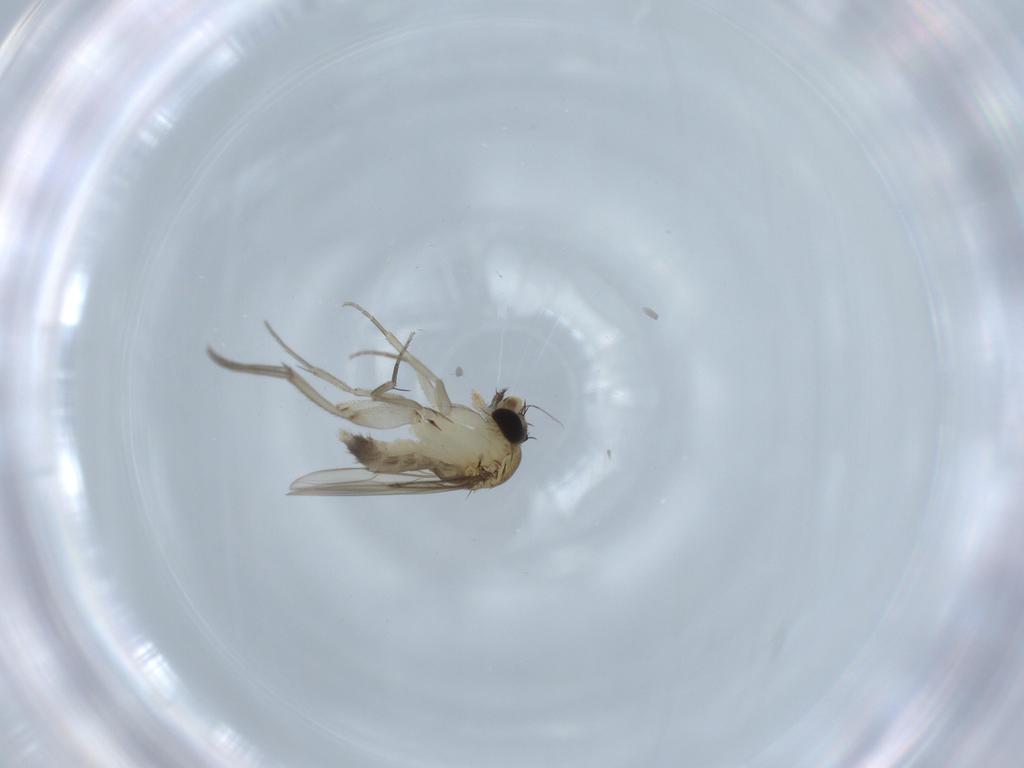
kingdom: Animalia
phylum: Arthropoda
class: Insecta
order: Diptera
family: Phoridae
